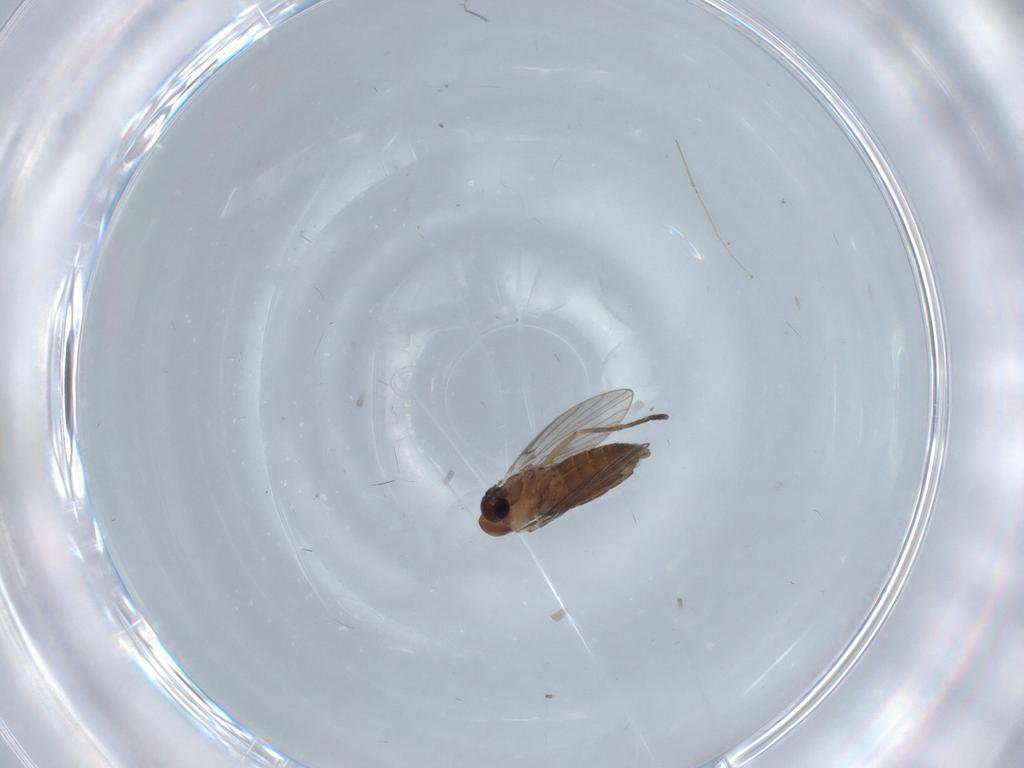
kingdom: Animalia
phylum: Arthropoda
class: Insecta
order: Diptera
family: Psychodidae
